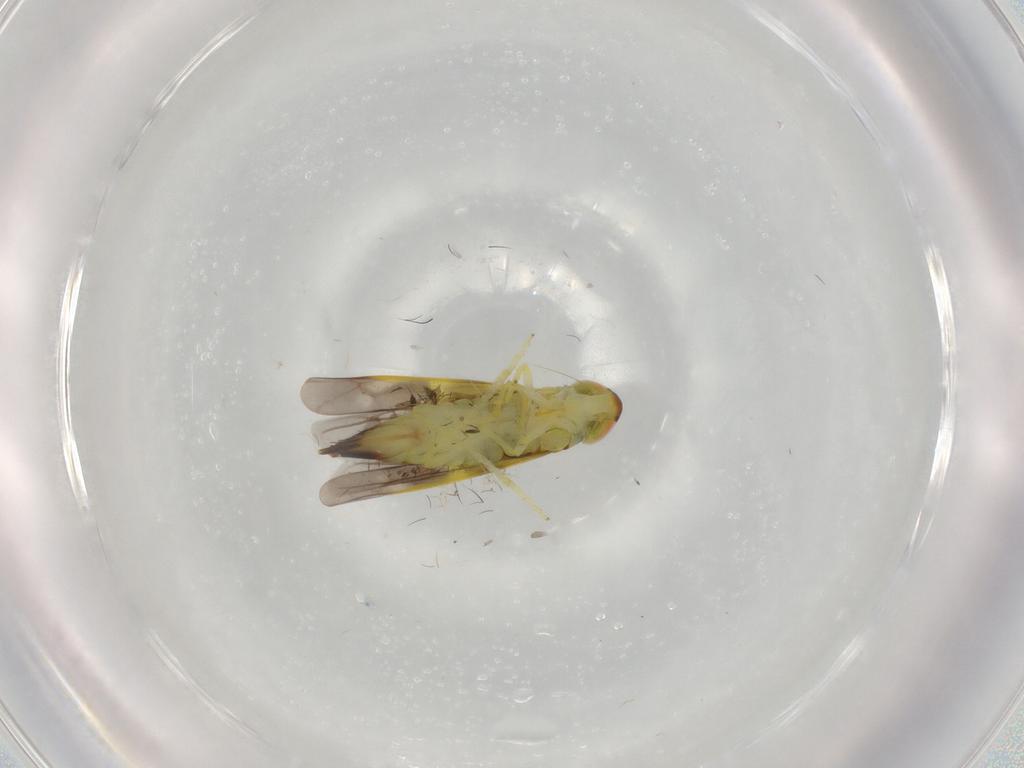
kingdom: Animalia
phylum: Arthropoda
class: Insecta
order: Hemiptera
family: Cicadellidae
